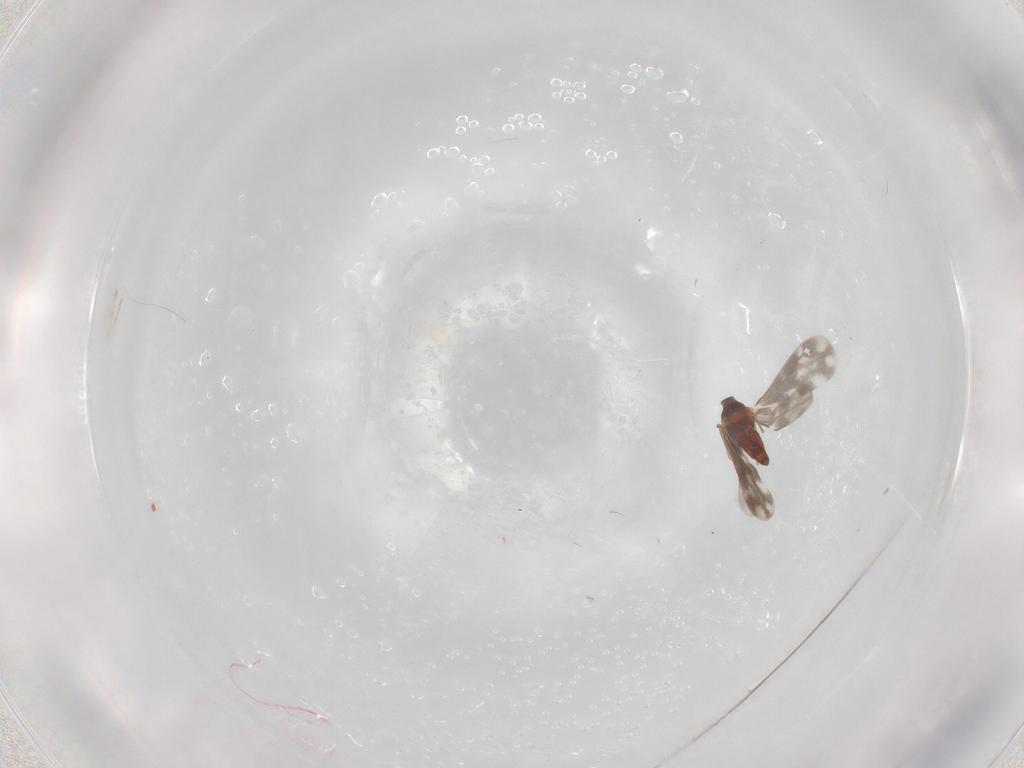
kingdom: Animalia
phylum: Arthropoda
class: Insecta
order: Hemiptera
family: Aleyrodidae
